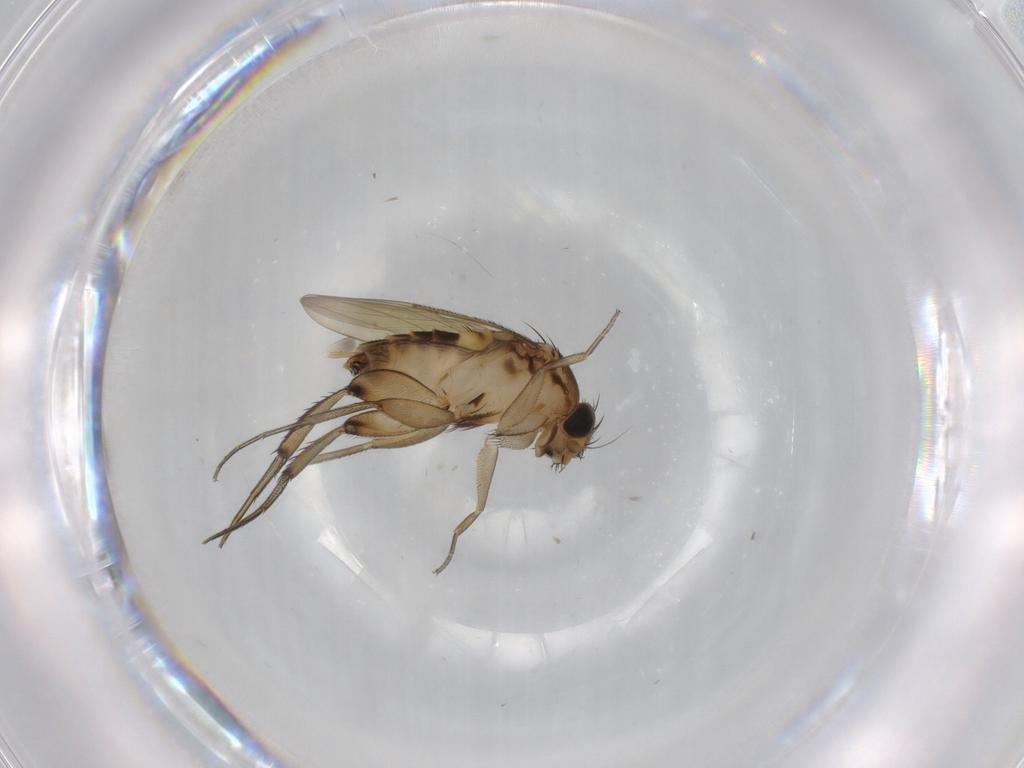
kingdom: Animalia
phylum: Arthropoda
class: Insecta
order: Diptera
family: Phoridae
